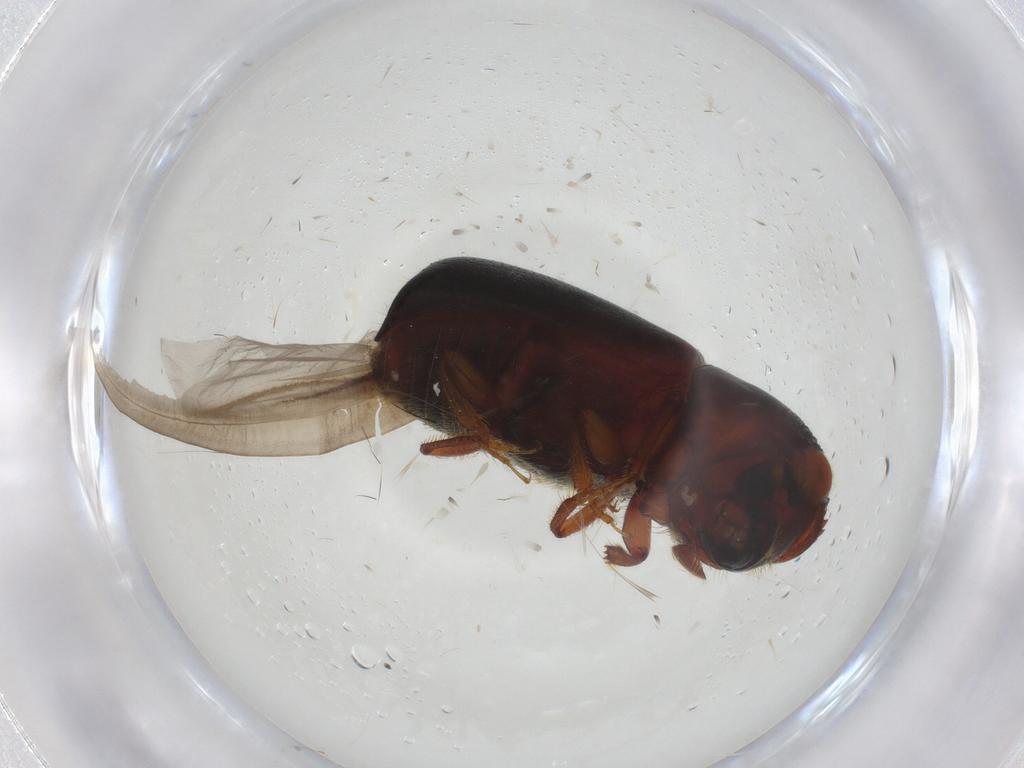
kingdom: Animalia
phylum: Arthropoda
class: Insecta
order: Coleoptera
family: Curculionidae
